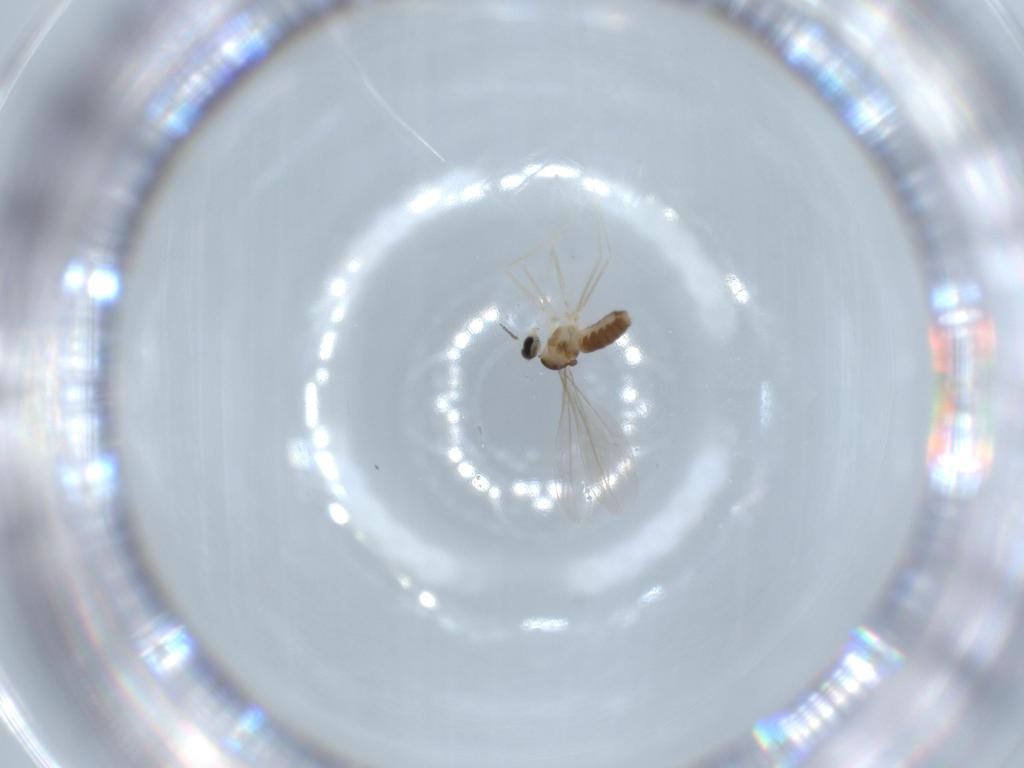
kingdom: Animalia
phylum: Arthropoda
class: Insecta
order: Diptera
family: Cecidomyiidae
